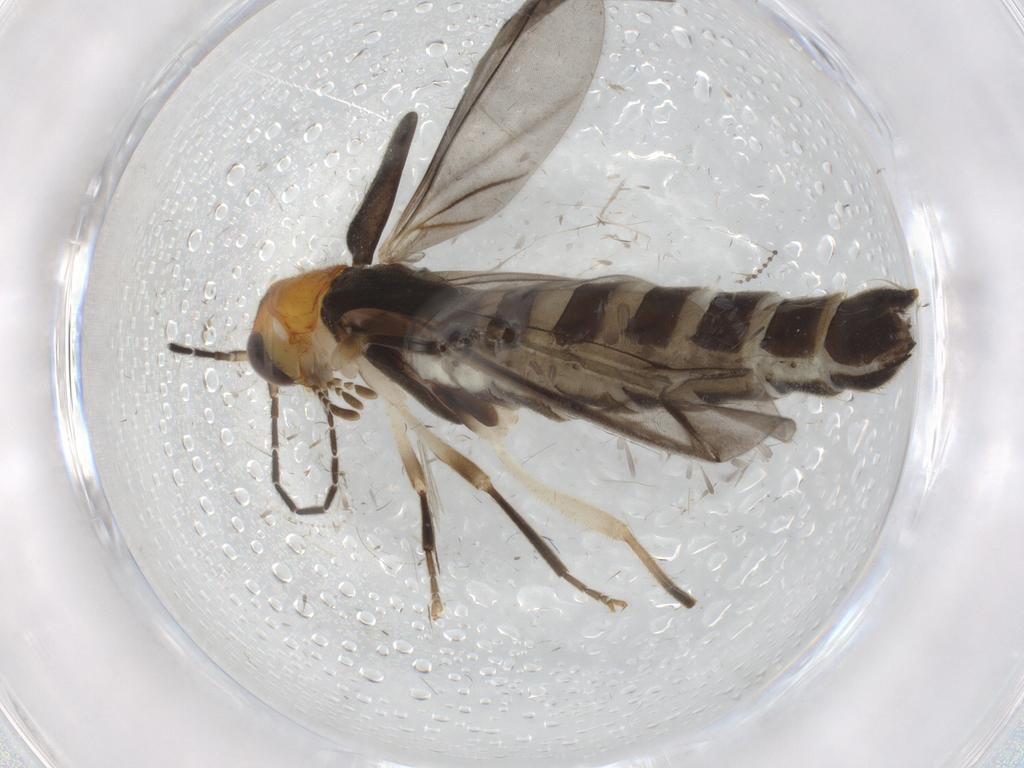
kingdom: Animalia
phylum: Arthropoda
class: Insecta
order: Coleoptera
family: Cantharidae
